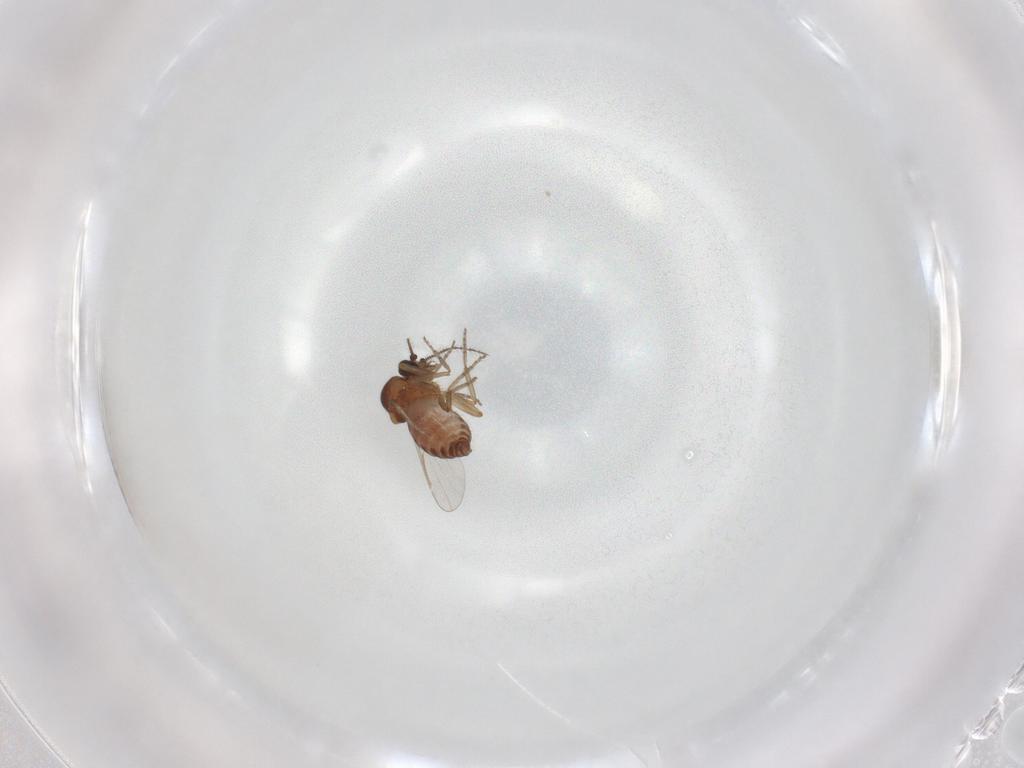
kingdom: Animalia
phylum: Arthropoda
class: Insecta
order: Diptera
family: Ceratopogonidae
